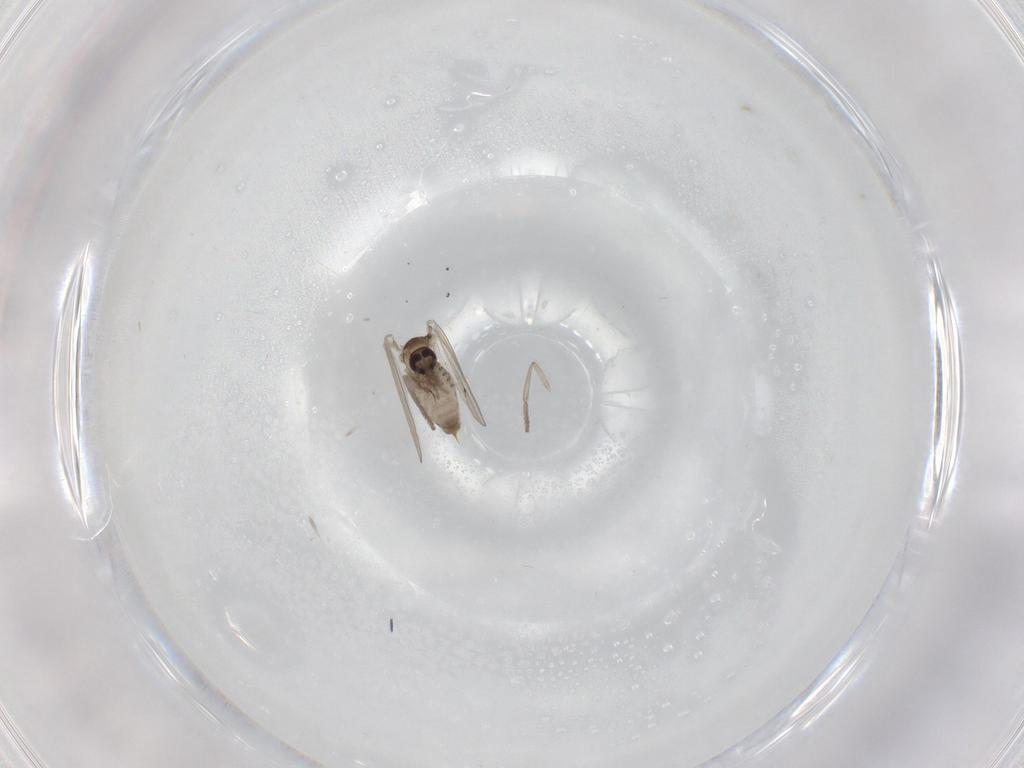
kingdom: Animalia
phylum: Arthropoda
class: Insecta
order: Diptera
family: Psychodidae
